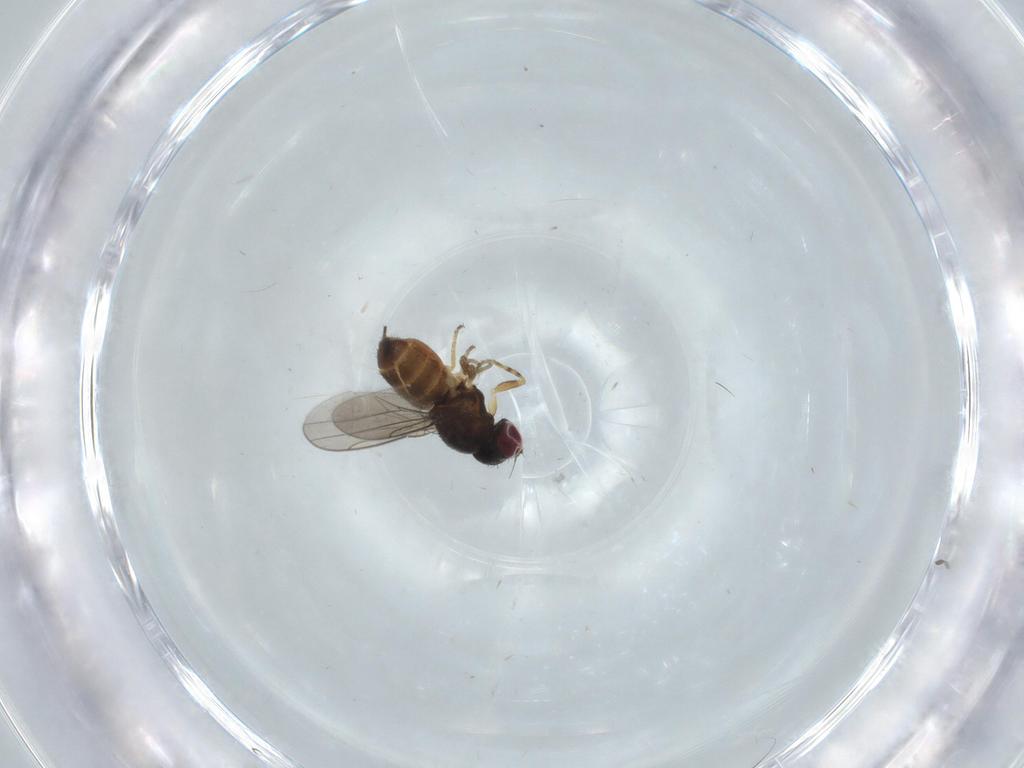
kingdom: Animalia
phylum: Arthropoda
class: Insecta
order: Diptera
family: Chloropidae
